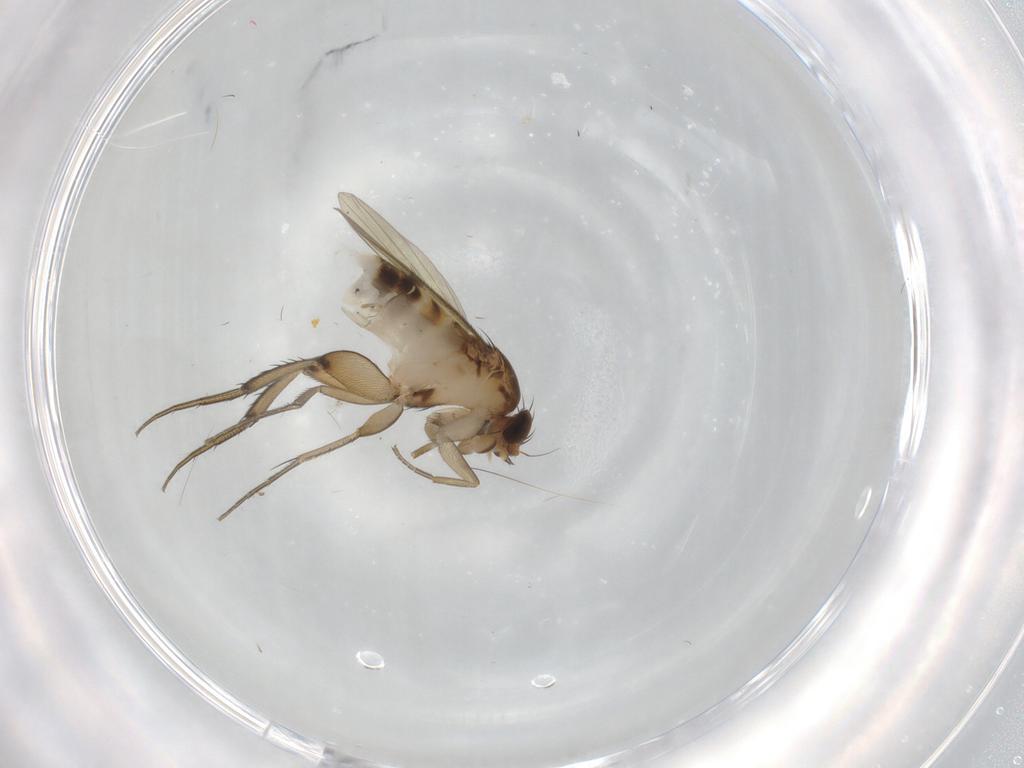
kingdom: Animalia
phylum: Arthropoda
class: Insecta
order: Diptera
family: Phoridae
